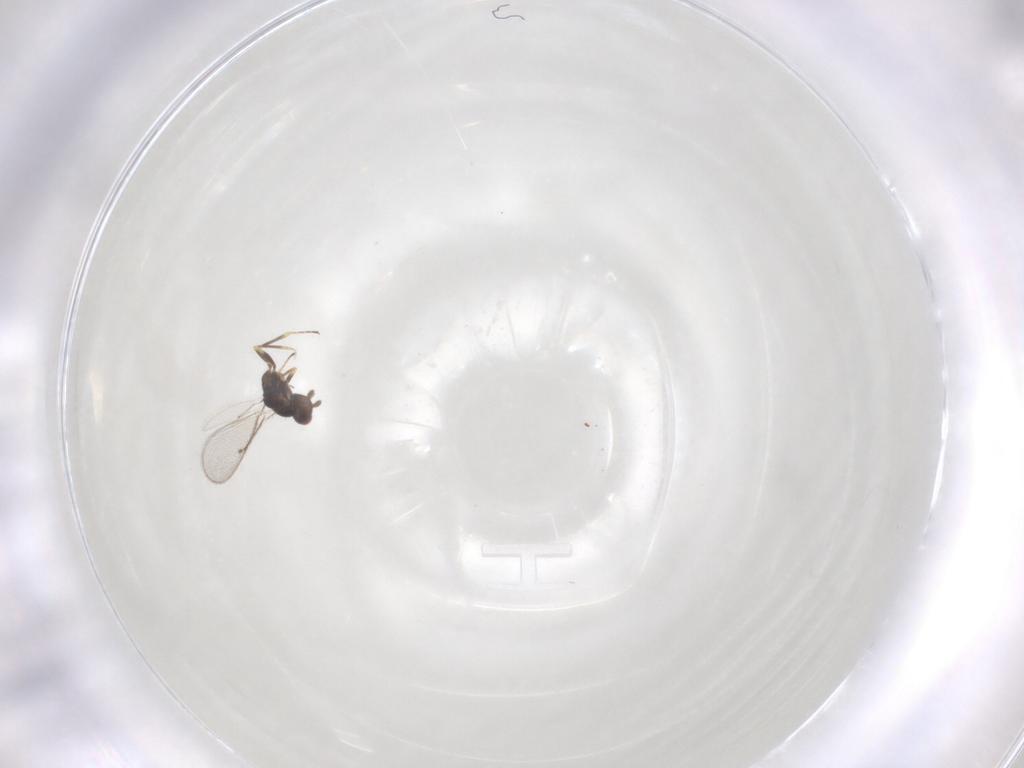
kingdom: Animalia
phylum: Arthropoda
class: Insecta
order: Hymenoptera
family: Eulophidae
